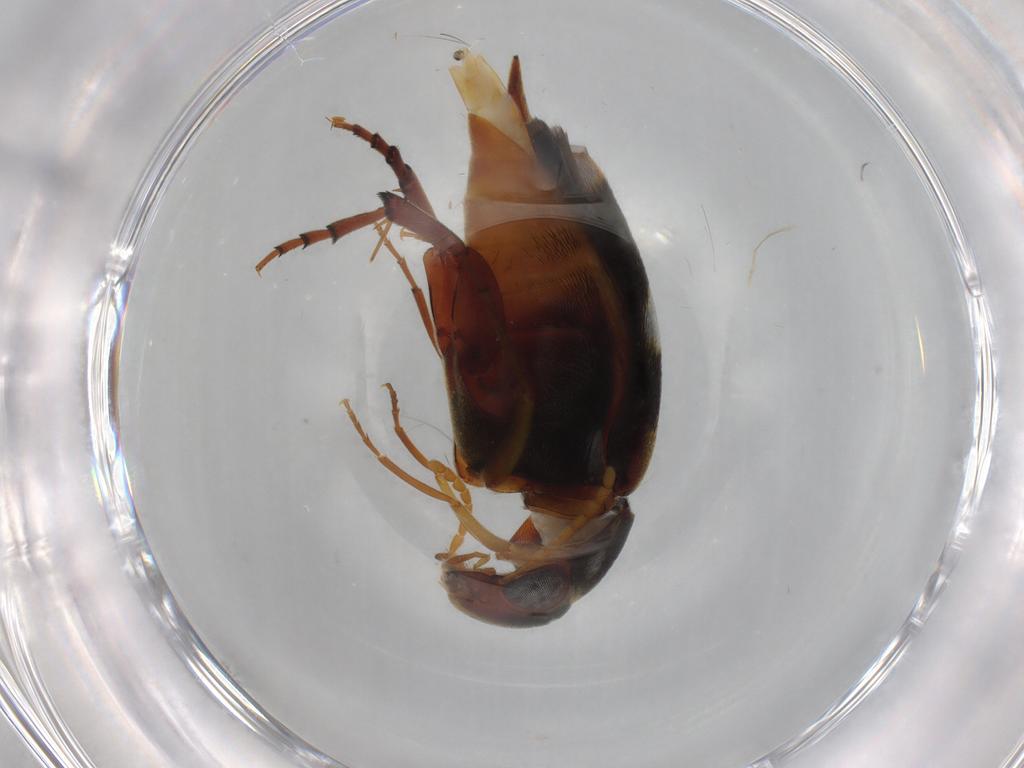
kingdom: Animalia
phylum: Arthropoda
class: Insecta
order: Coleoptera
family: Mordellidae
